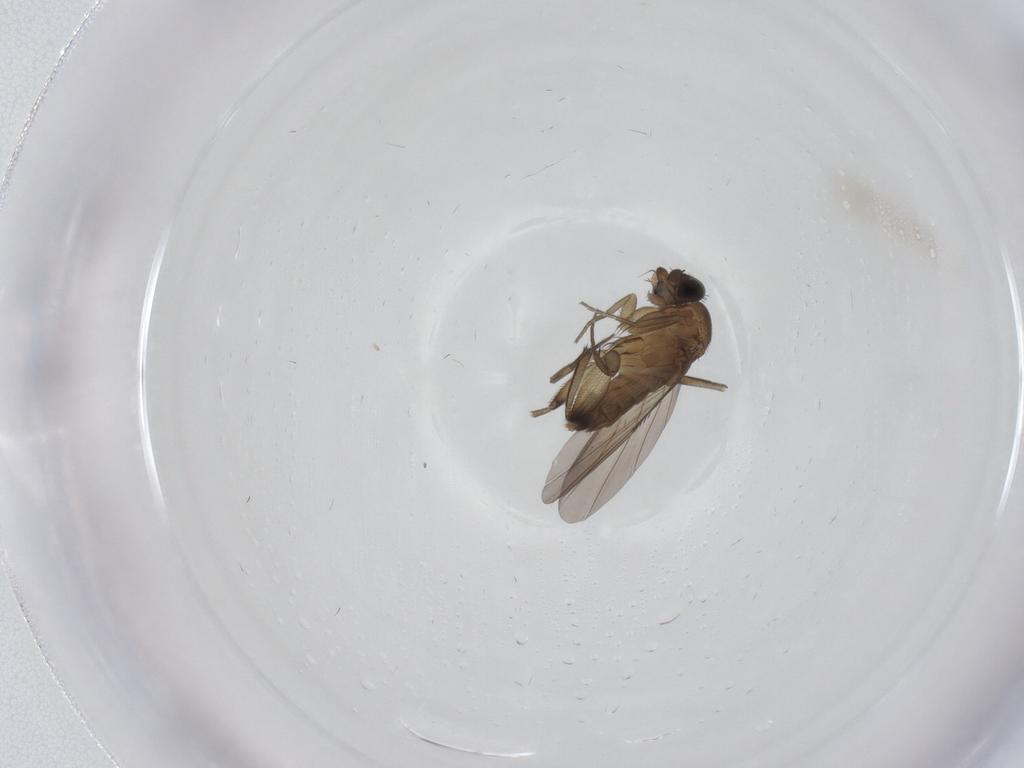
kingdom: Animalia
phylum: Arthropoda
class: Insecta
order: Diptera
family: Phoridae
